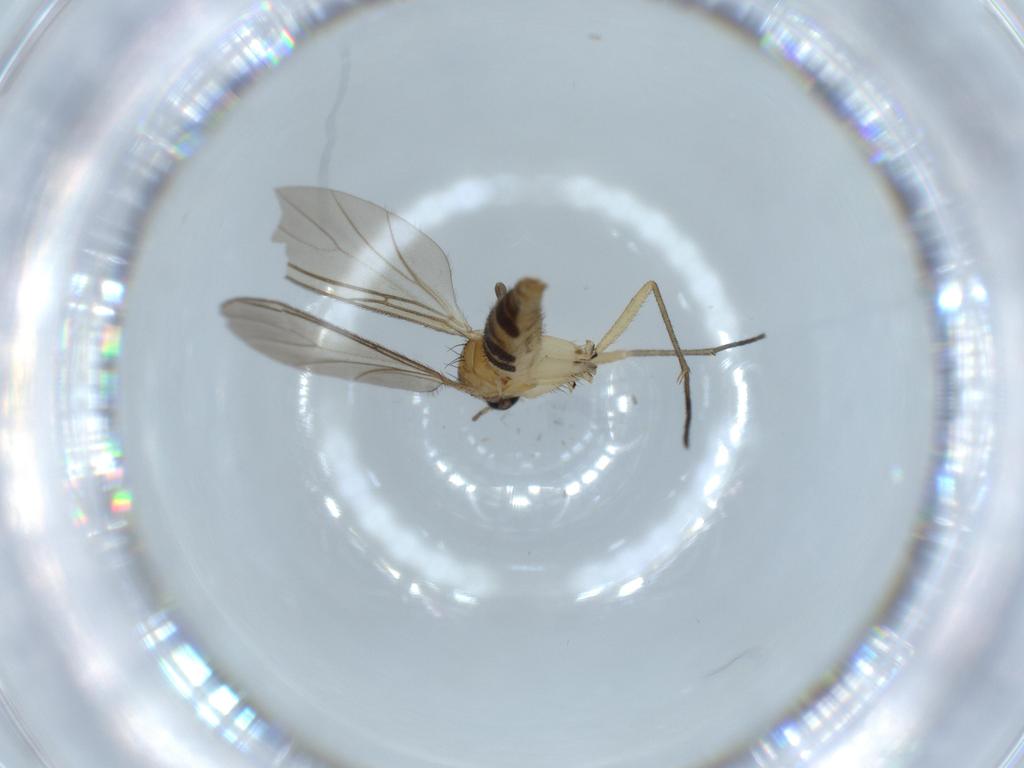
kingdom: Animalia
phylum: Arthropoda
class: Insecta
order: Diptera
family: Sciaridae
